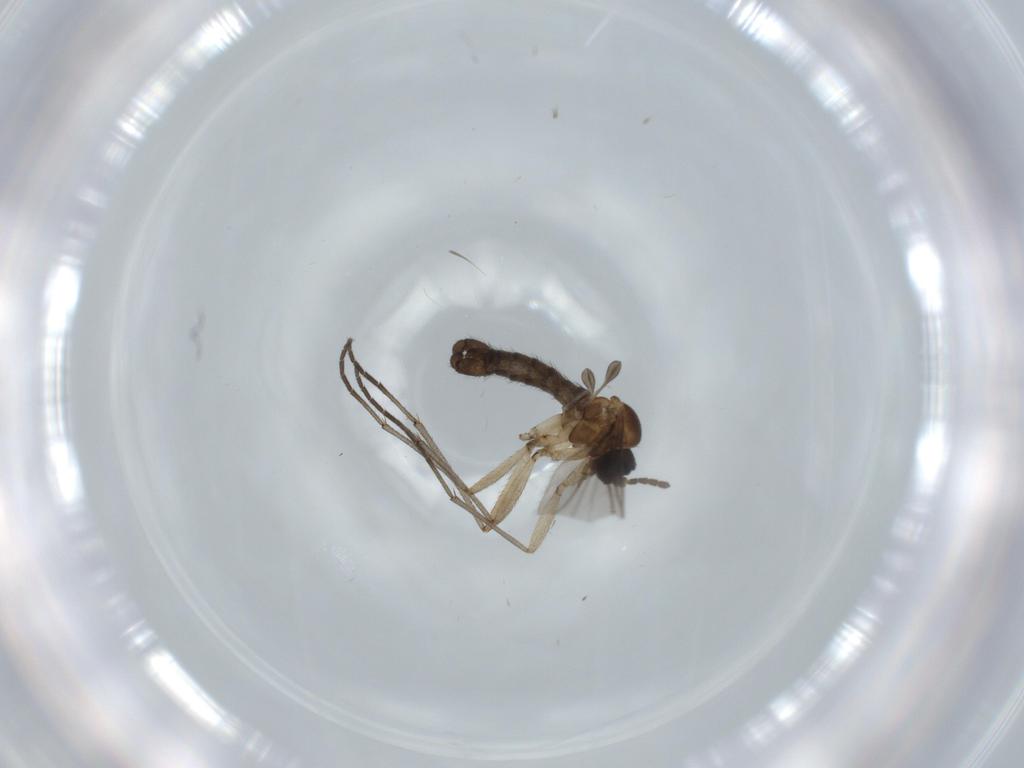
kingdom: Animalia
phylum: Arthropoda
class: Insecta
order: Diptera
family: Sciaridae
